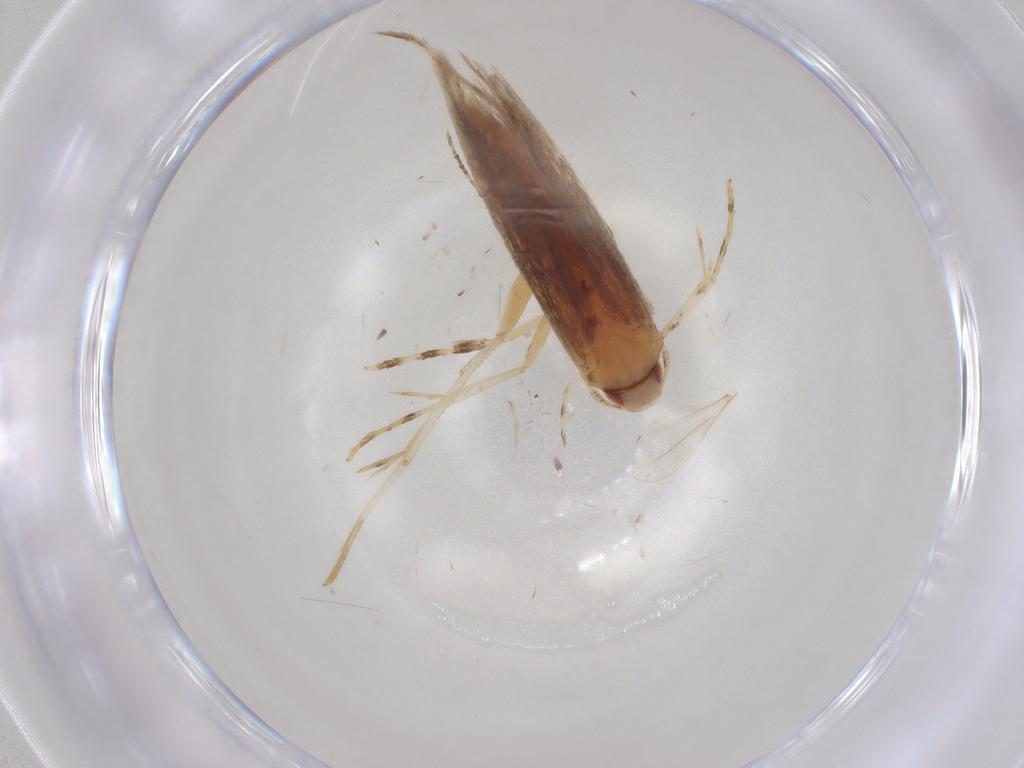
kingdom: Animalia
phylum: Arthropoda
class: Insecta
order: Lepidoptera
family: Cosmopterigidae
